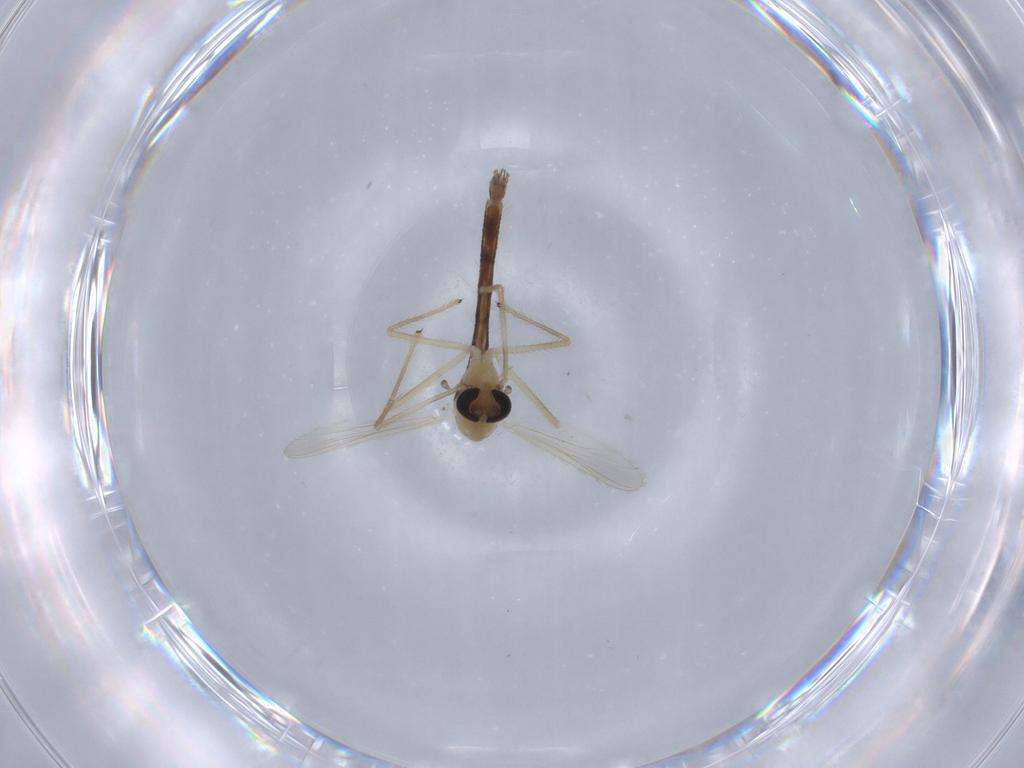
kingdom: Animalia
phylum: Arthropoda
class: Insecta
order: Diptera
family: Chironomidae
